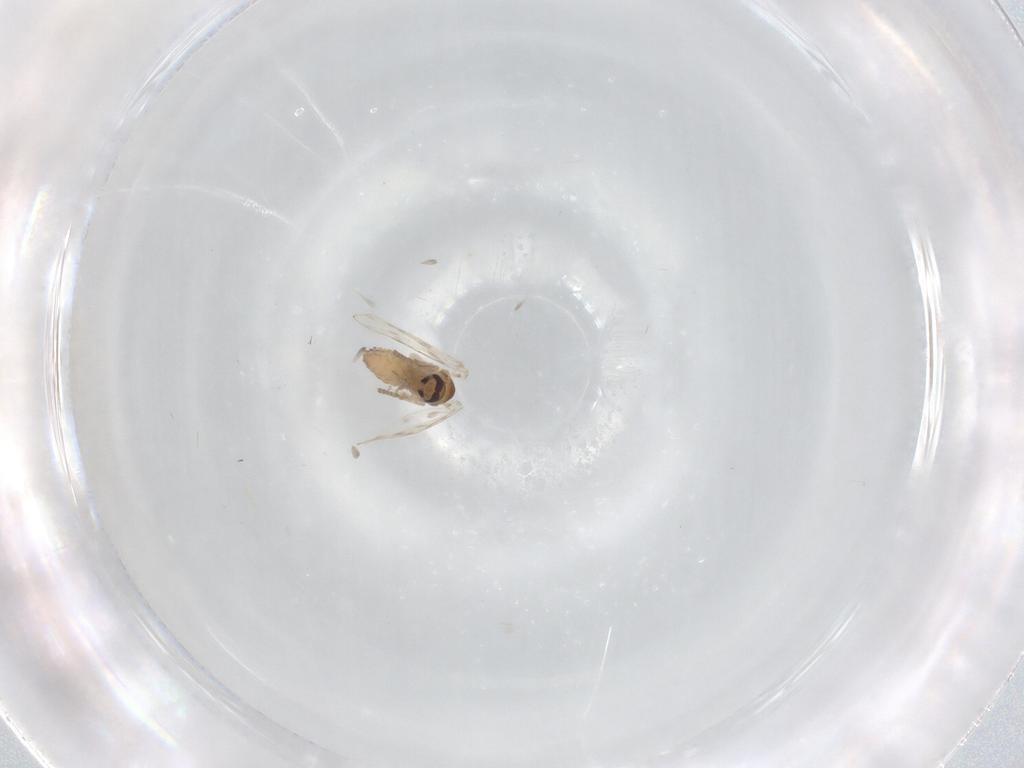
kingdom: Animalia
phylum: Arthropoda
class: Insecta
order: Diptera
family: Psychodidae
